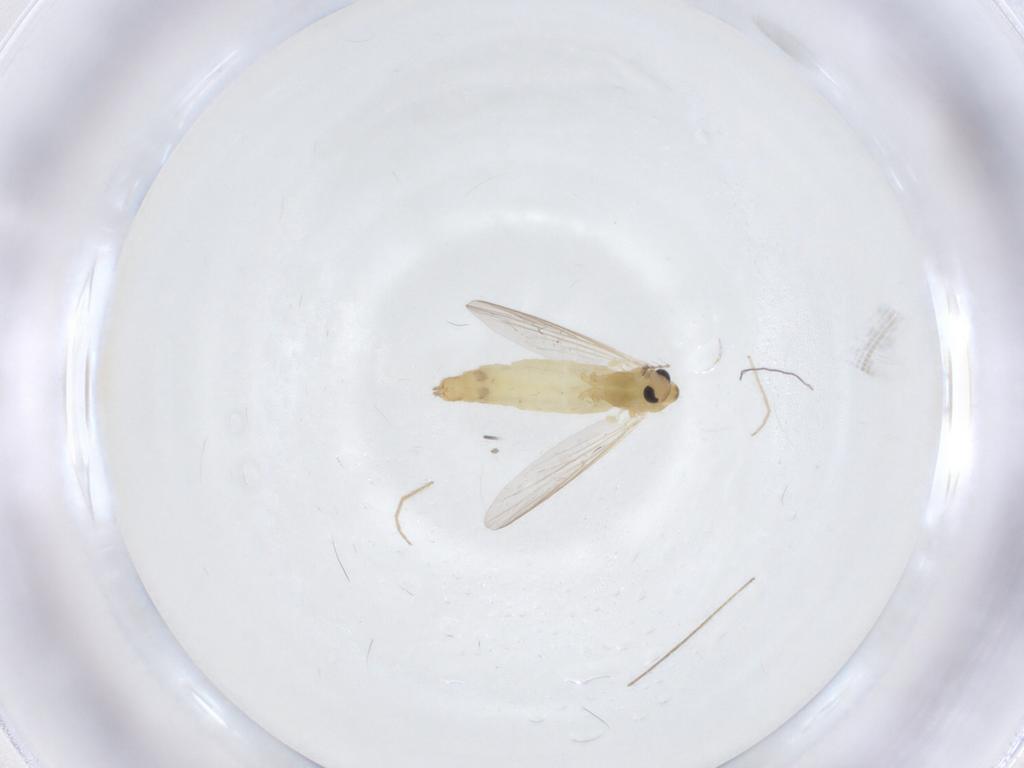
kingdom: Animalia
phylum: Arthropoda
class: Insecta
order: Diptera
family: Chironomidae
